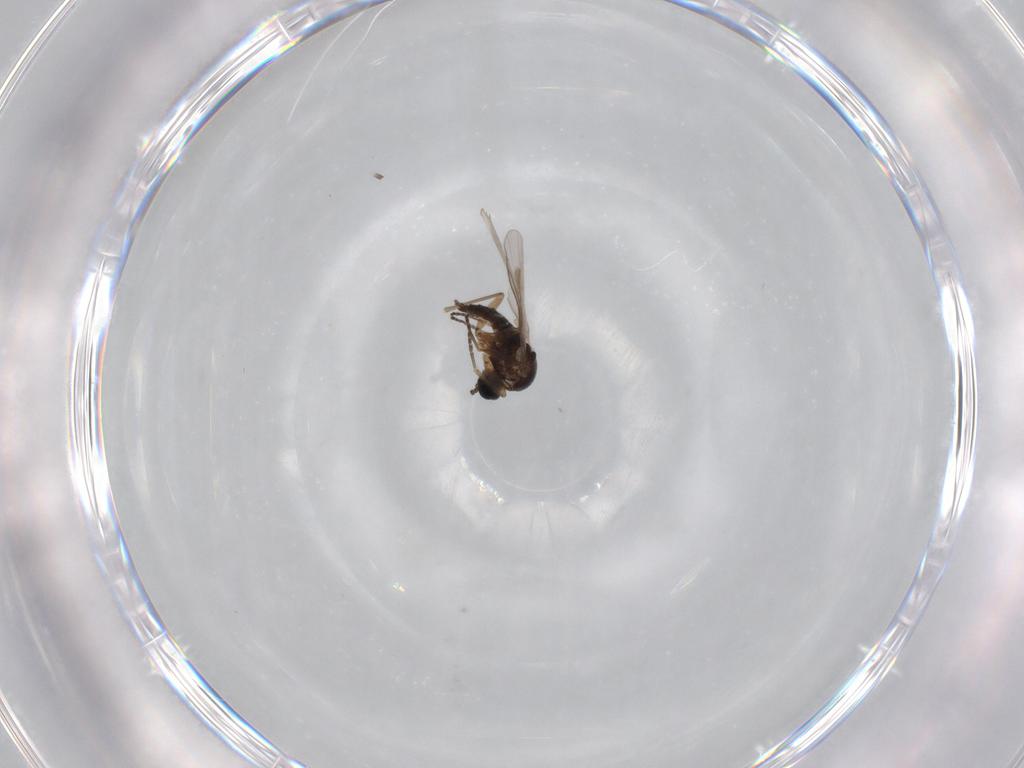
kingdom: Animalia
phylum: Arthropoda
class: Insecta
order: Diptera
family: Sciaridae
